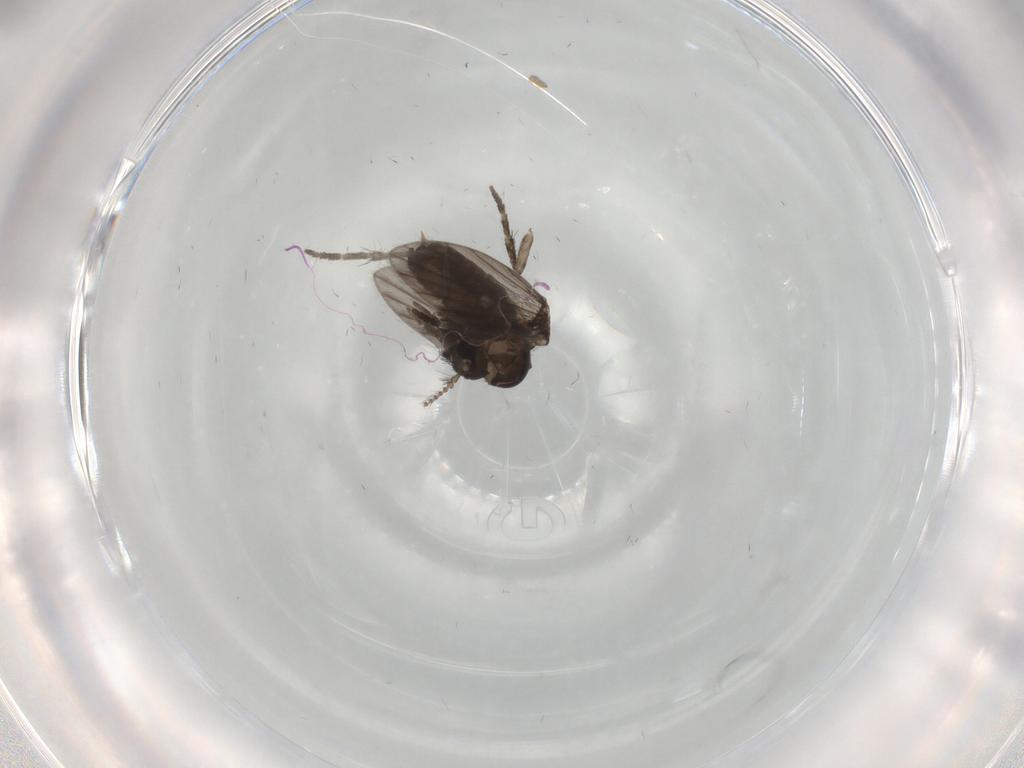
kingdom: Animalia
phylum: Arthropoda
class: Insecta
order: Diptera
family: Psychodidae
